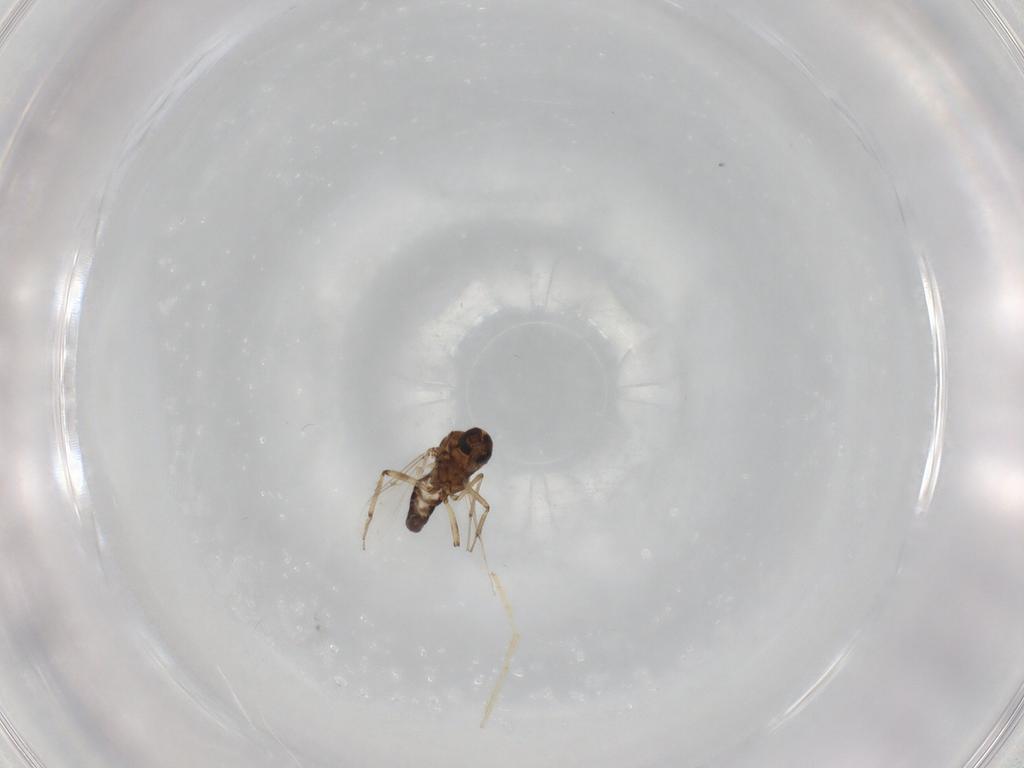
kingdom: Animalia
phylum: Arthropoda
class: Insecta
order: Diptera
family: Ceratopogonidae
